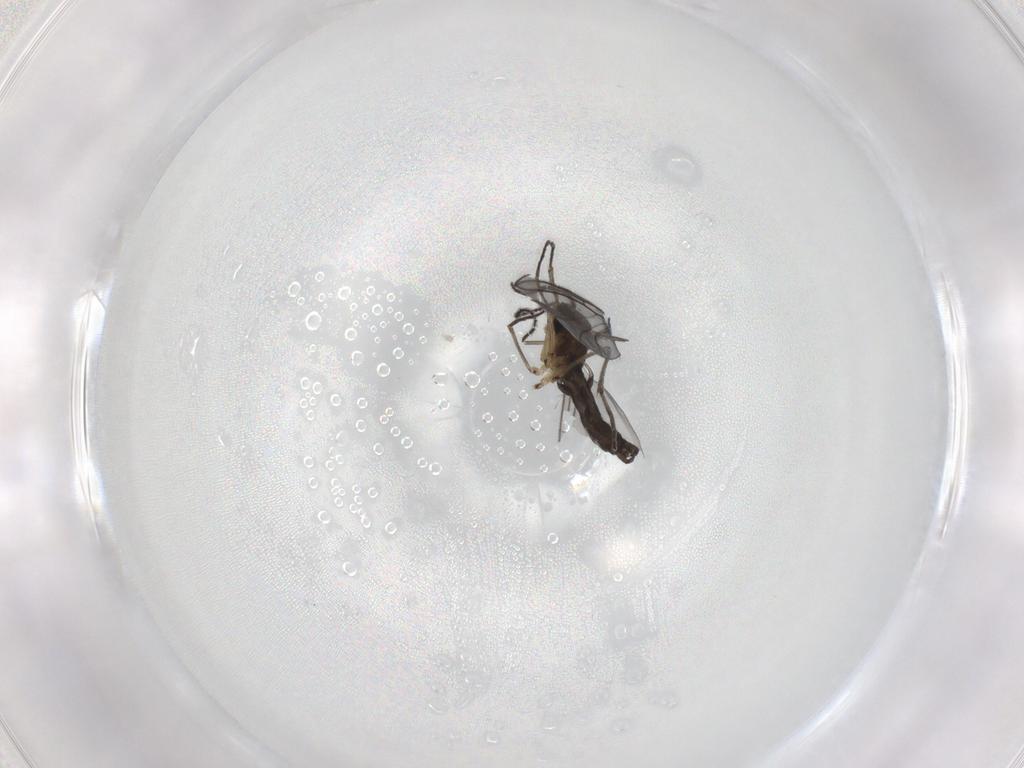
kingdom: Animalia
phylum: Arthropoda
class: Insecta
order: Diptera
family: Sciaridae
